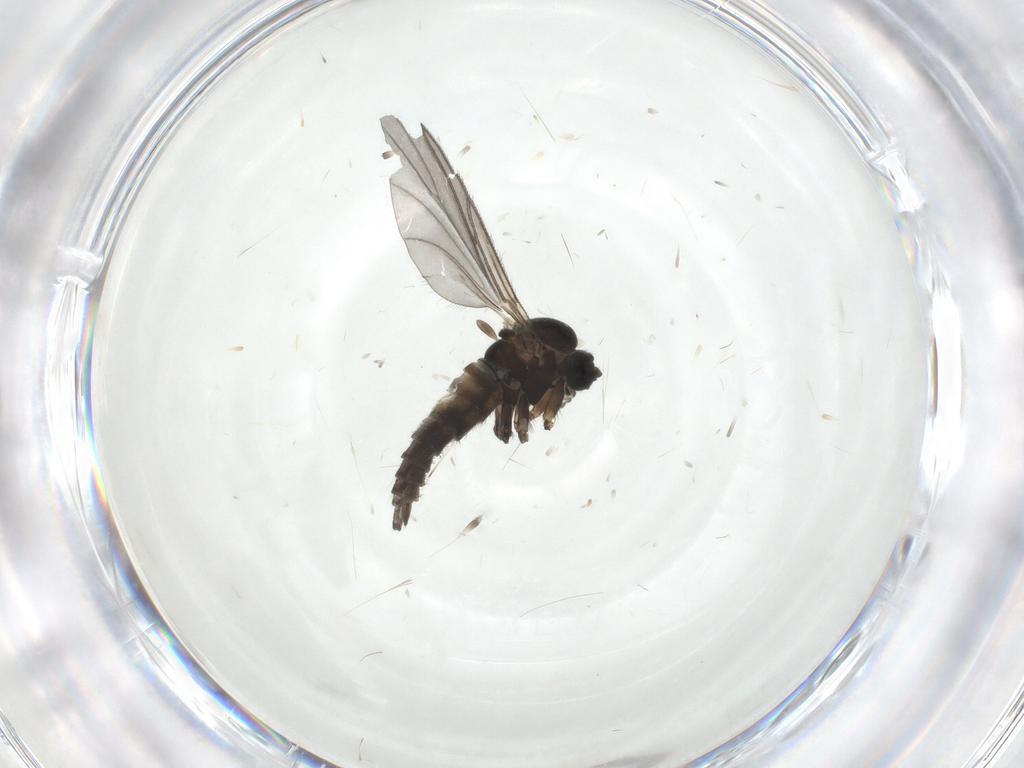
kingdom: Animalia
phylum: Arthropoda
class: Insecta
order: Diptera
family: Sciaridae
